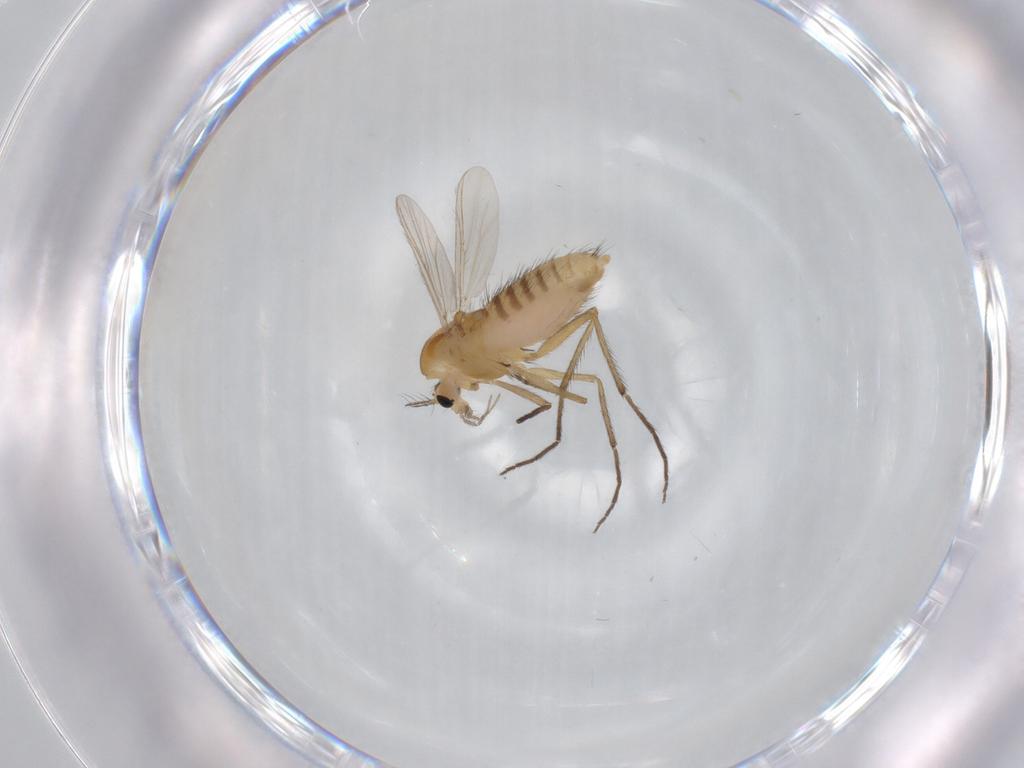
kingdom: Animalia
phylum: Arthropoda
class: Insecta
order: Diptera
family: Chironomidae
